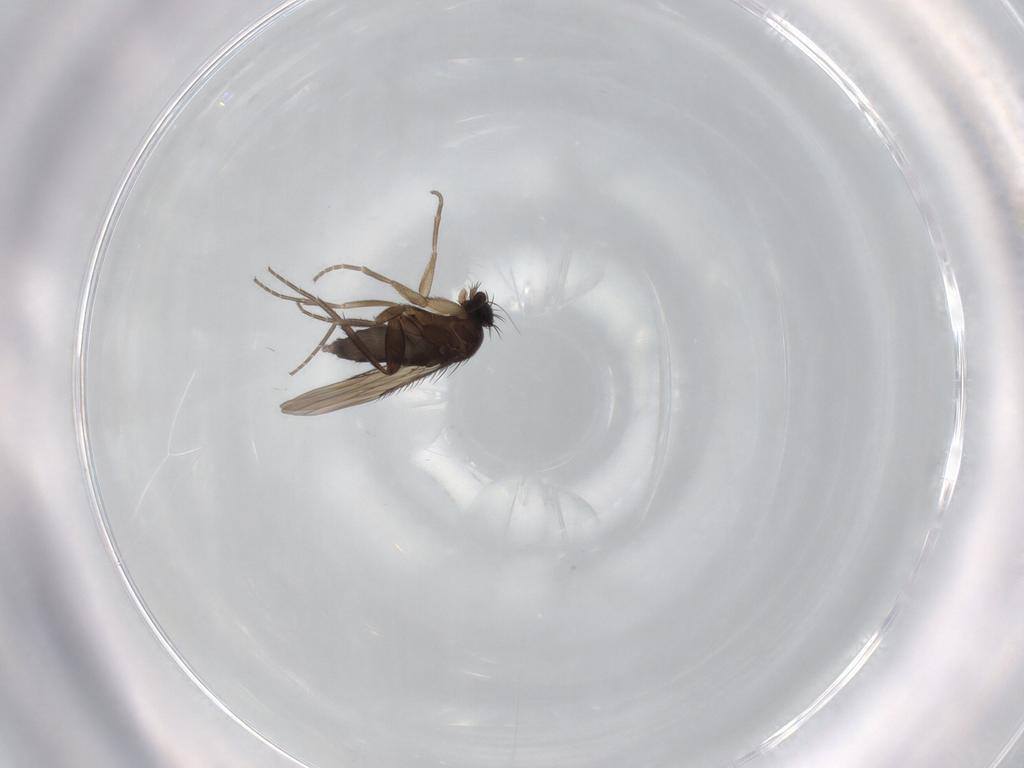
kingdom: Animalia
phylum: Arthropoda
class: Insecta
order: Diptera
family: Phoridae
